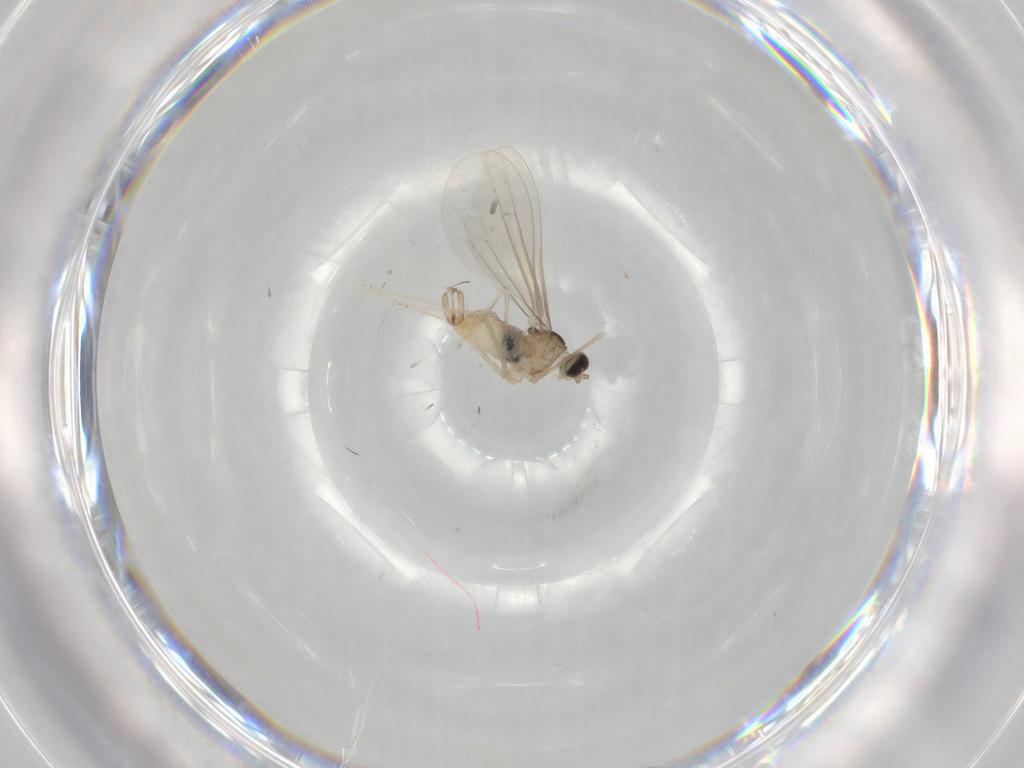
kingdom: Animalia
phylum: Arthropoda
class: Insecta
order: Diptera
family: Cecidomyiidae
